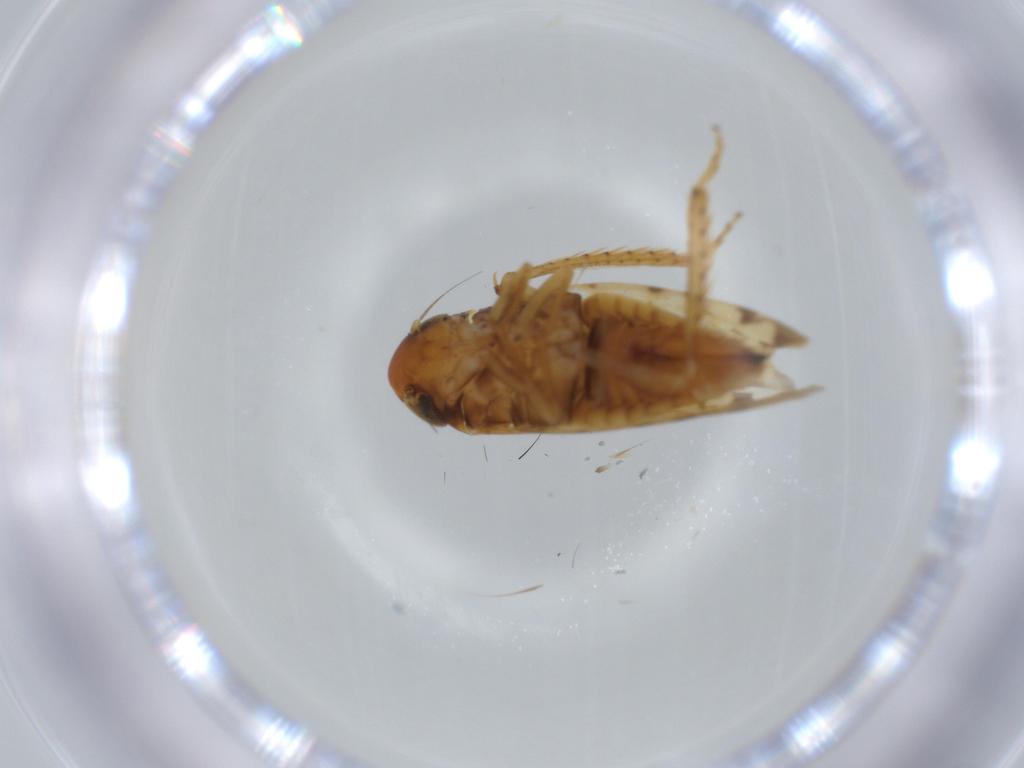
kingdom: Animalia
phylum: Arthropoda
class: Insecta
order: Hemiptera
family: Cicadellidae
